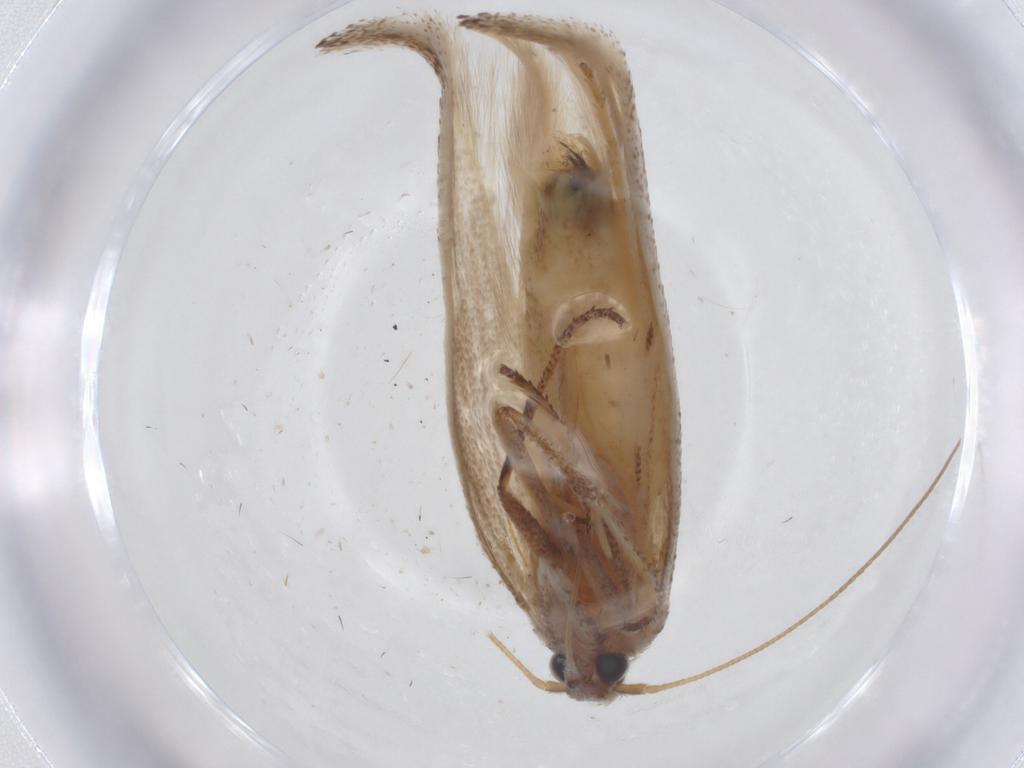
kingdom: Animalia
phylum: Arthropoda
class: Insecta
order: Lepidoptera
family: Gelechiidae
